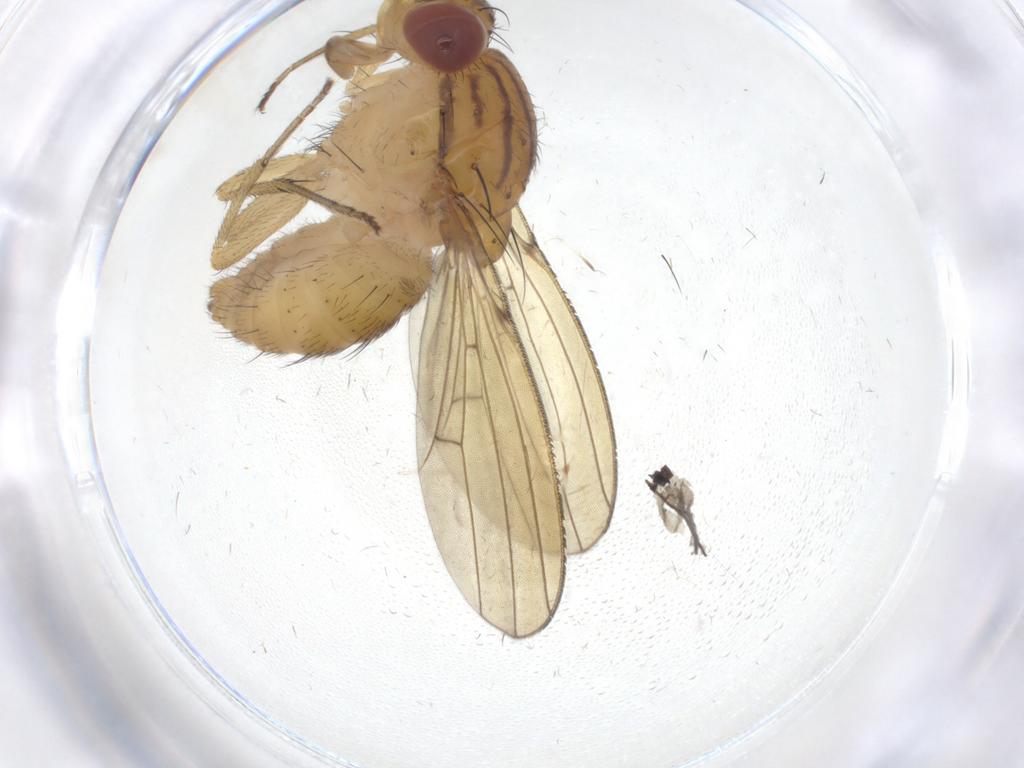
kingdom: Animalia
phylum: Arthropoda
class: Insecta
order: Diptera
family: Lauxaniidae
